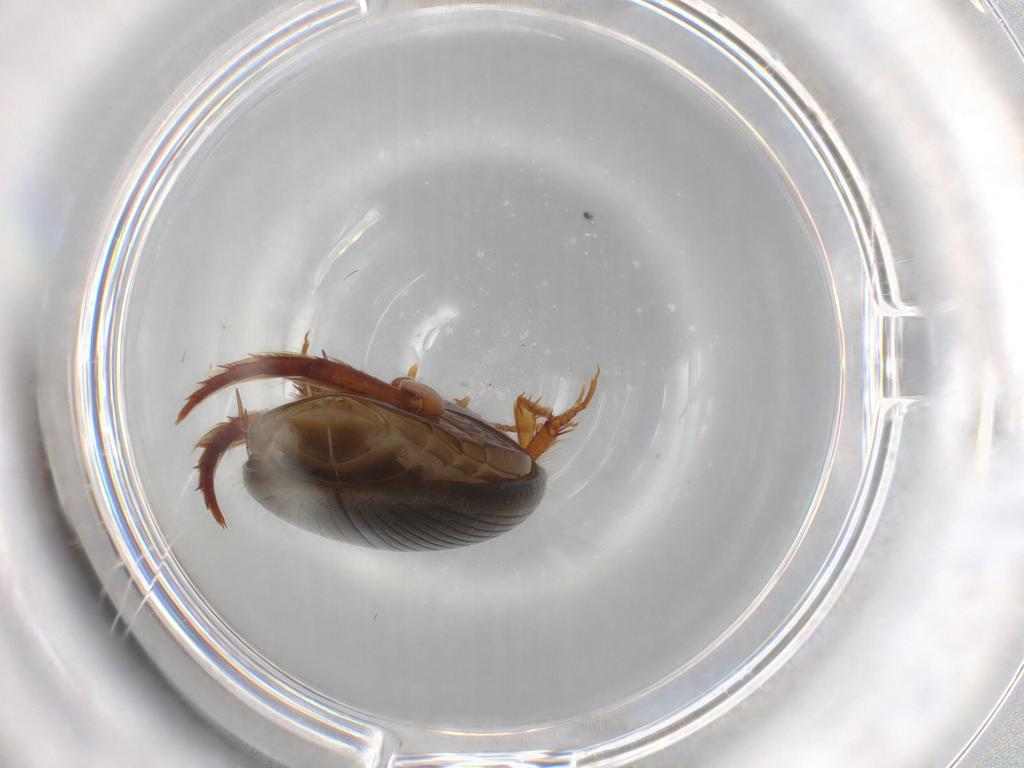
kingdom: Animalia
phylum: Arthropoda
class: Insecta
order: Coleoptera
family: Dytiscidae
